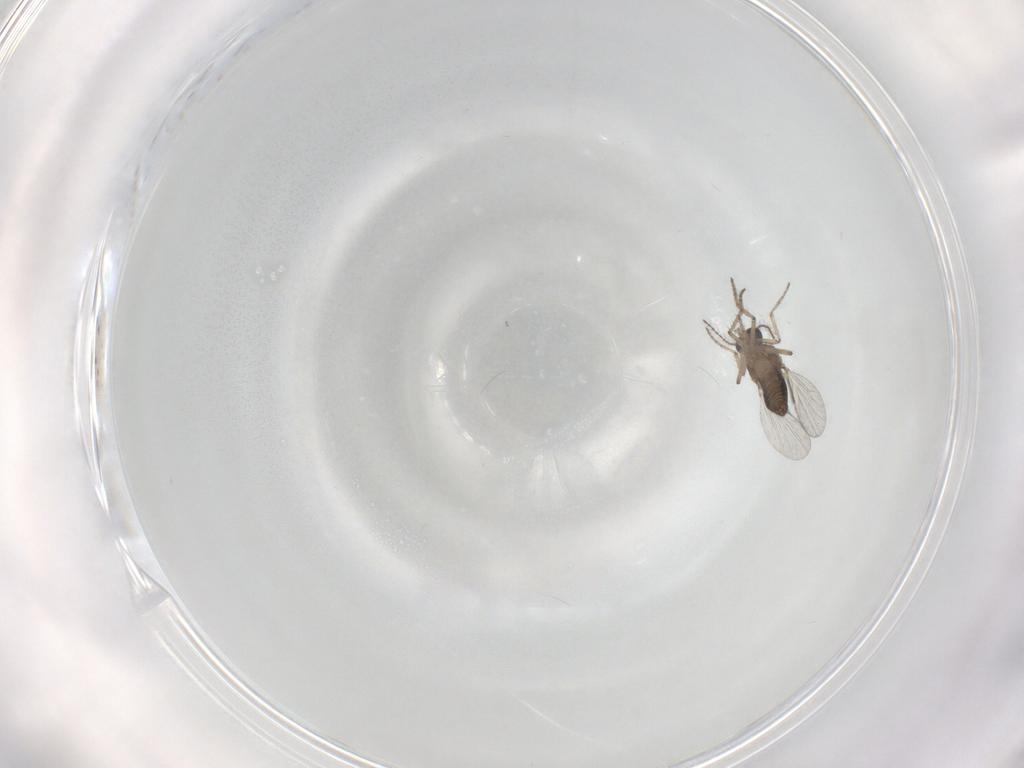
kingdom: Animalia
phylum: Arthropoda
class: Insecta
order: Diptera
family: Ceratopogonidae
